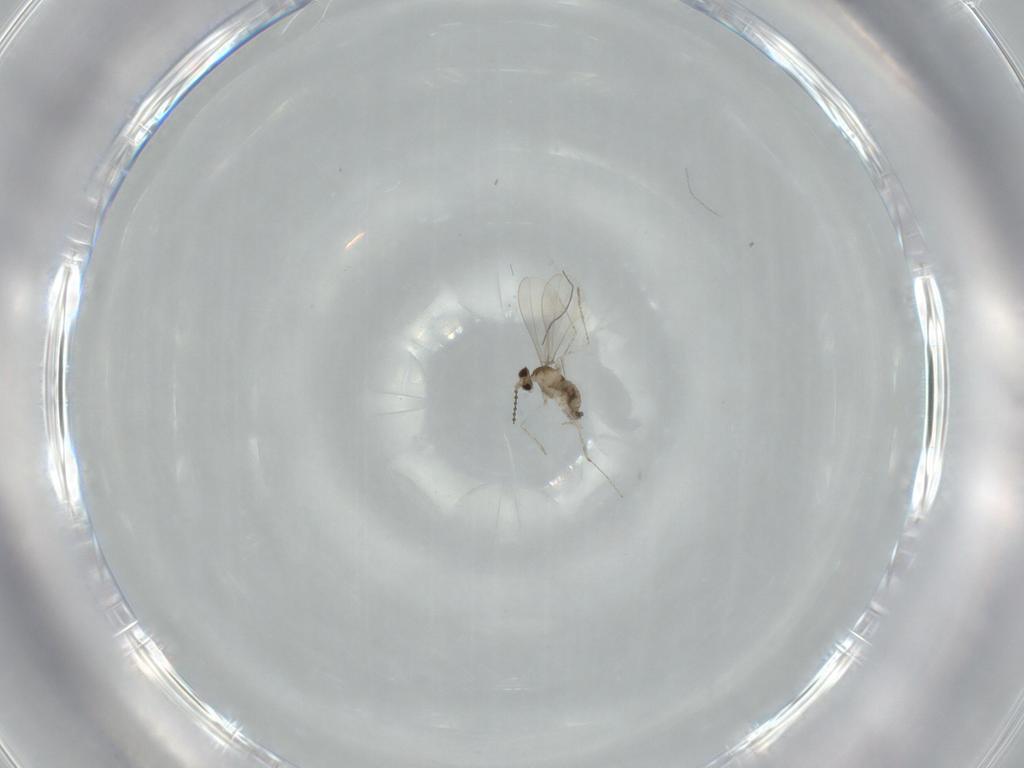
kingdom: Animalia
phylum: Arthropoda
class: Insecta
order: Diptera
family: Cecidomyiidae
